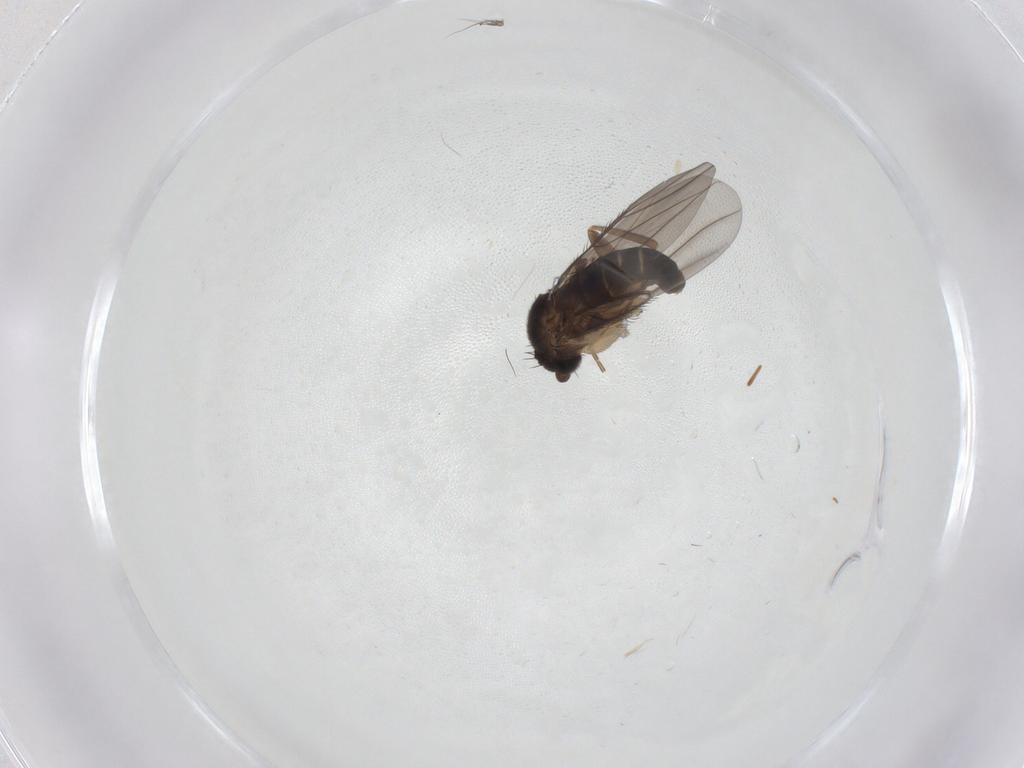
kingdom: Animalia
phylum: Arthropoda
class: Insecta
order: Diptera
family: Phoridae
